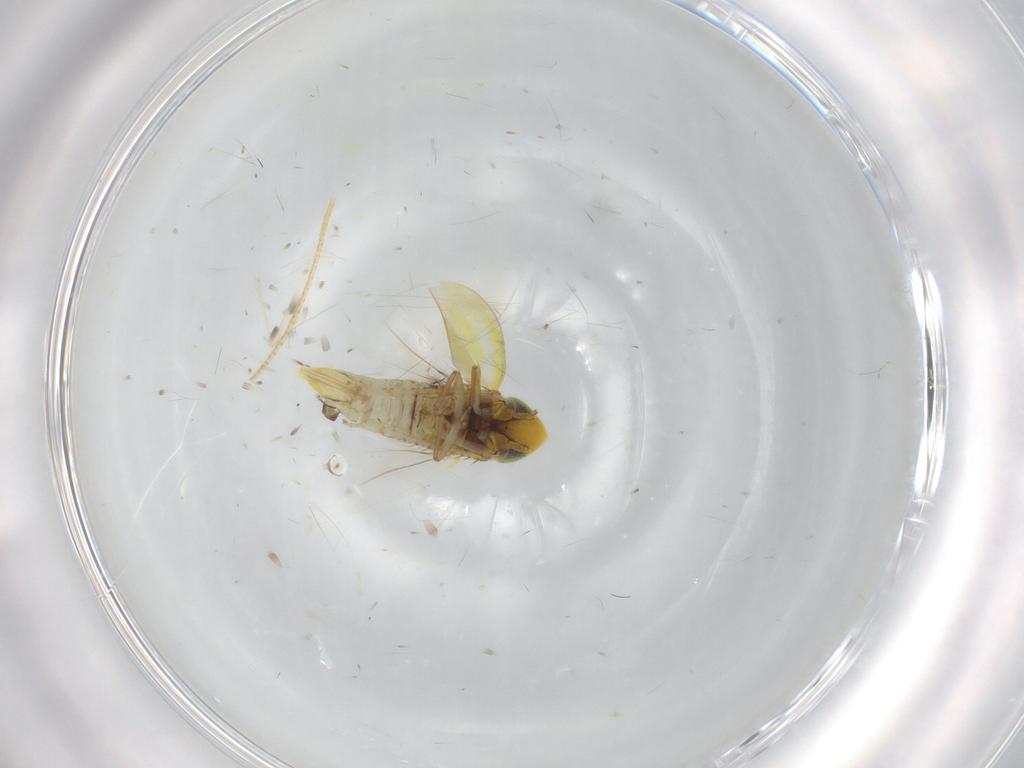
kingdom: Animalia
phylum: Arthropoda
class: Insecta
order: Hemiptera
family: Cicadellidae
